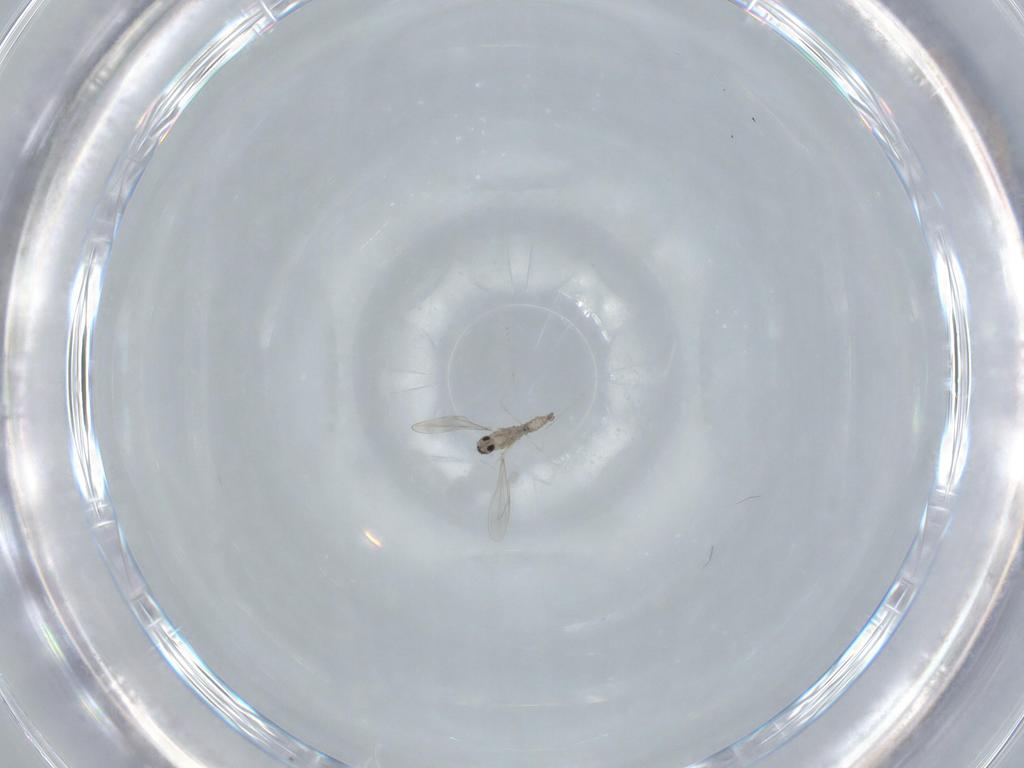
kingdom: Animalia
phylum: Arthropoda
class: Insecta
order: Diptera
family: Cecidomyiidae
